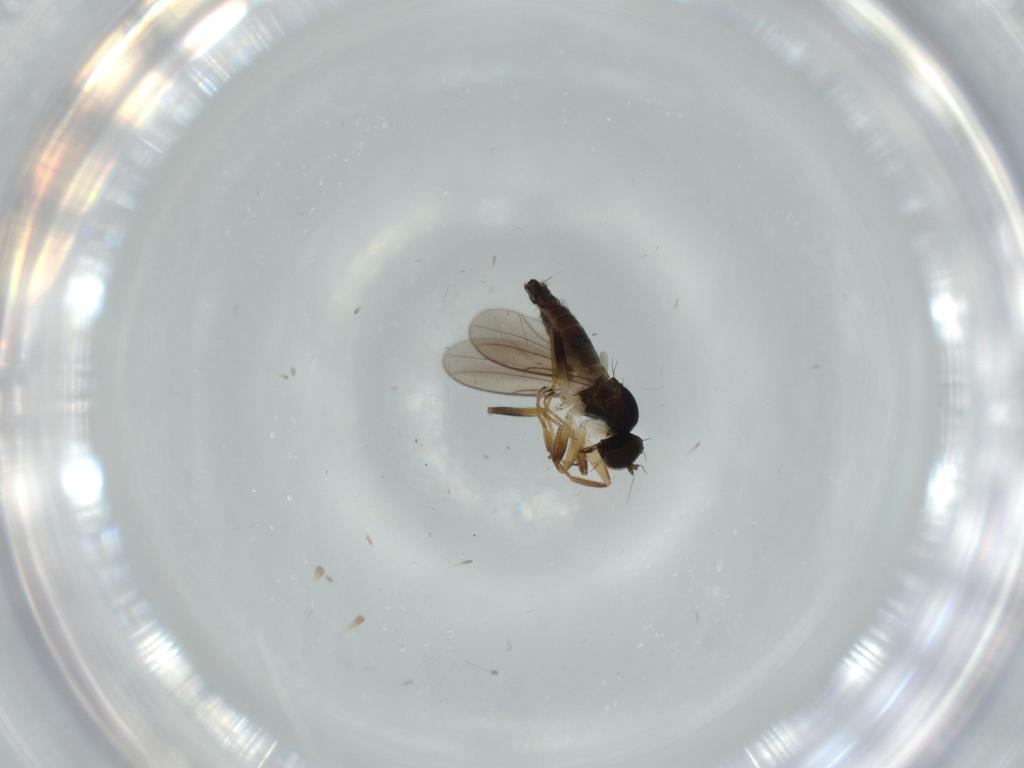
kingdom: Animalia
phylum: Arthropoda
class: Insecta
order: Diptera
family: Hybotidae
